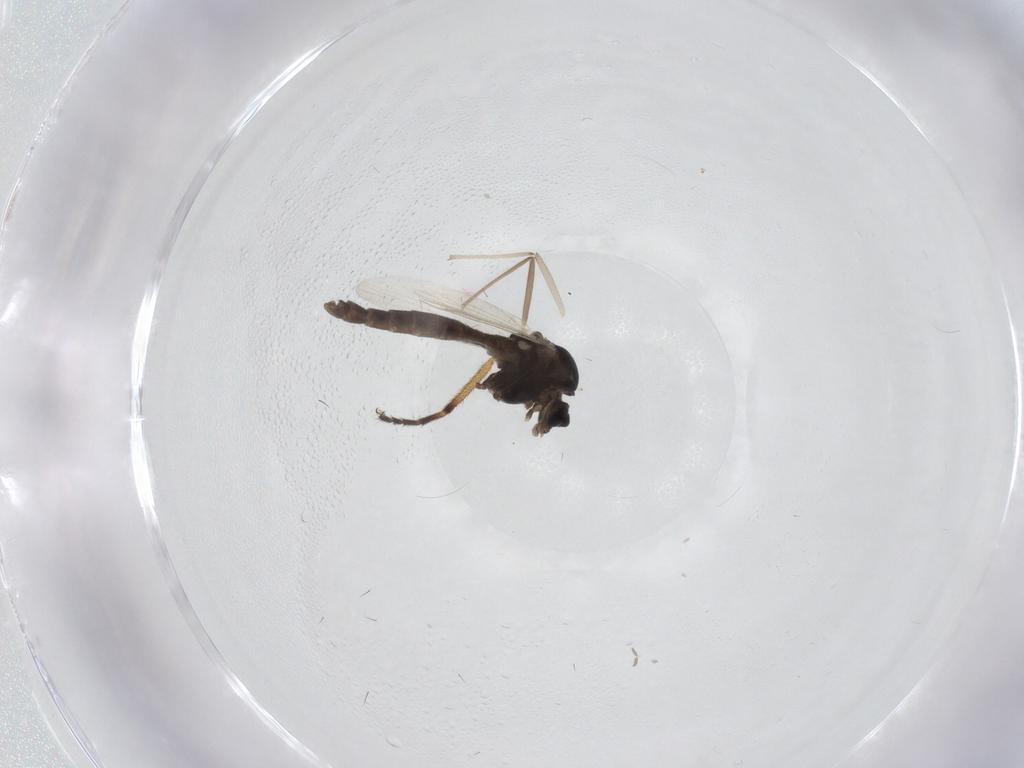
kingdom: Animalia
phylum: Arthropoda
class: Insecta
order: Diptera
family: Chironomidae
